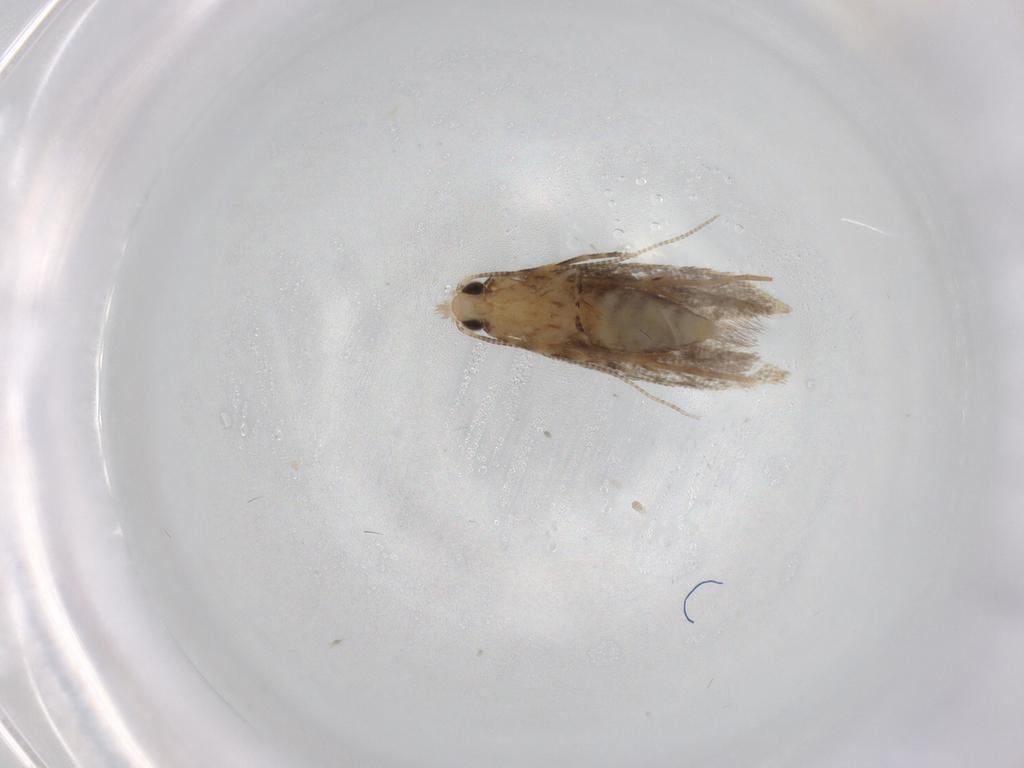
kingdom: Animalia
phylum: Arthropoda
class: Insecta
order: Lepidoptera
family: Tineidae
